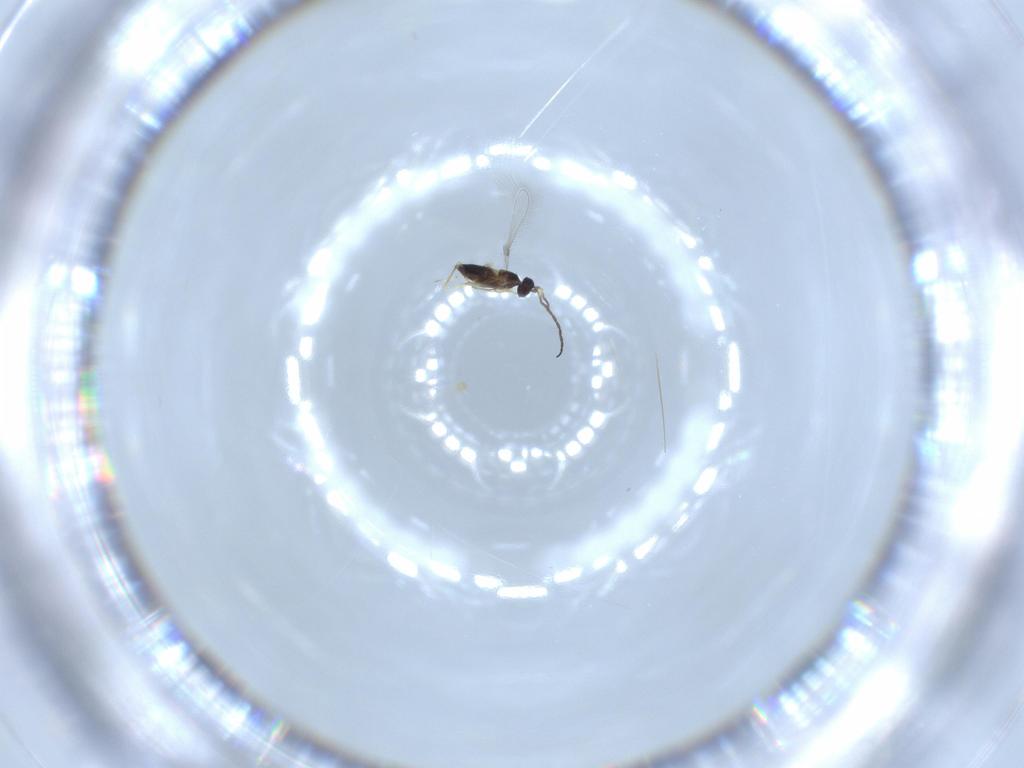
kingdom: Animalia
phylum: Arthropoda
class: Insecta
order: Hymenoptera
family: Mymaridae
